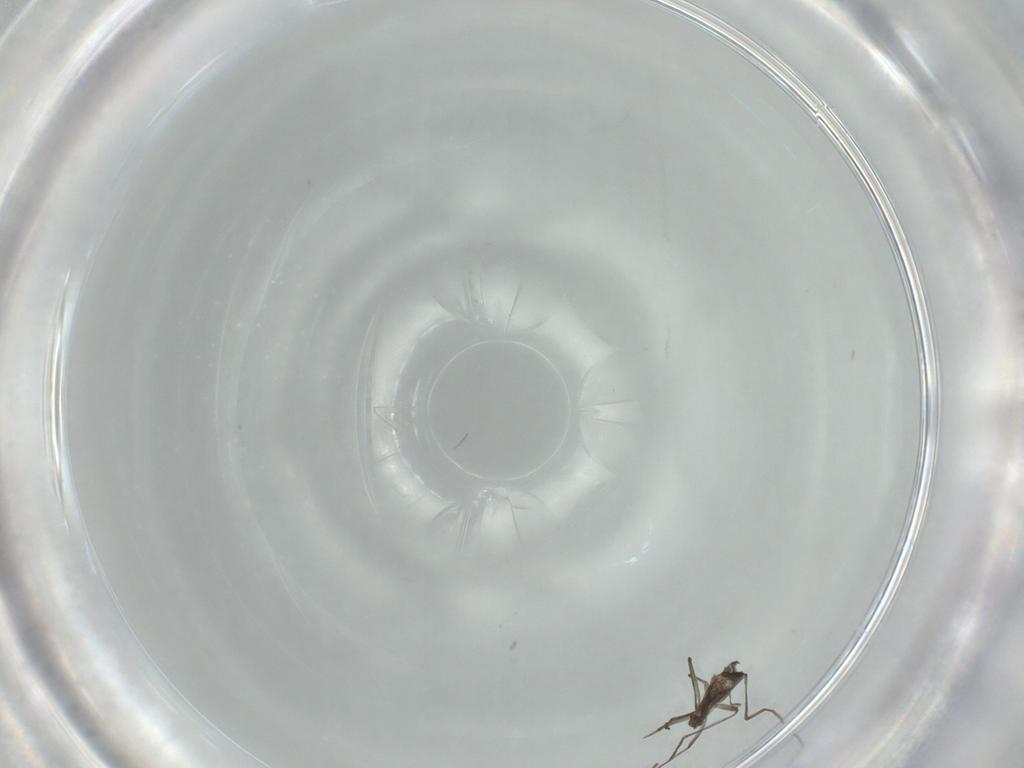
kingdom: Animalia
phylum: Arthropoda
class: Insecta
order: Diptera
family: Cecidomyiidae
